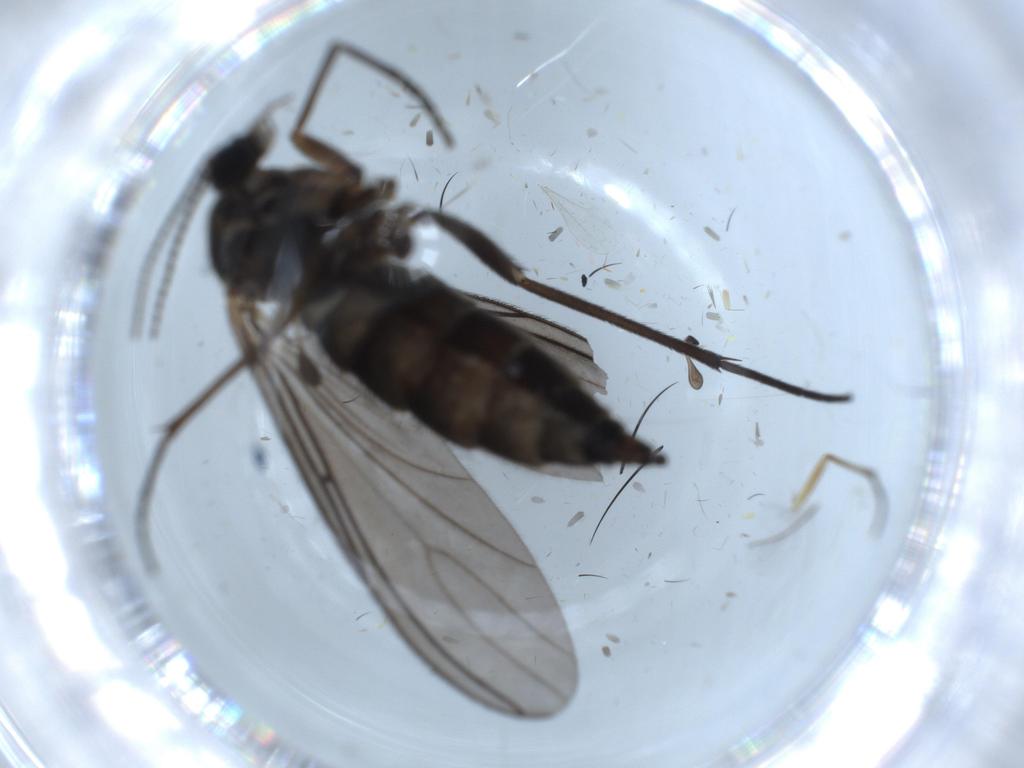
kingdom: Animalia
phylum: Arthropoda
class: Insecta
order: Diptera
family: Sciaridae
